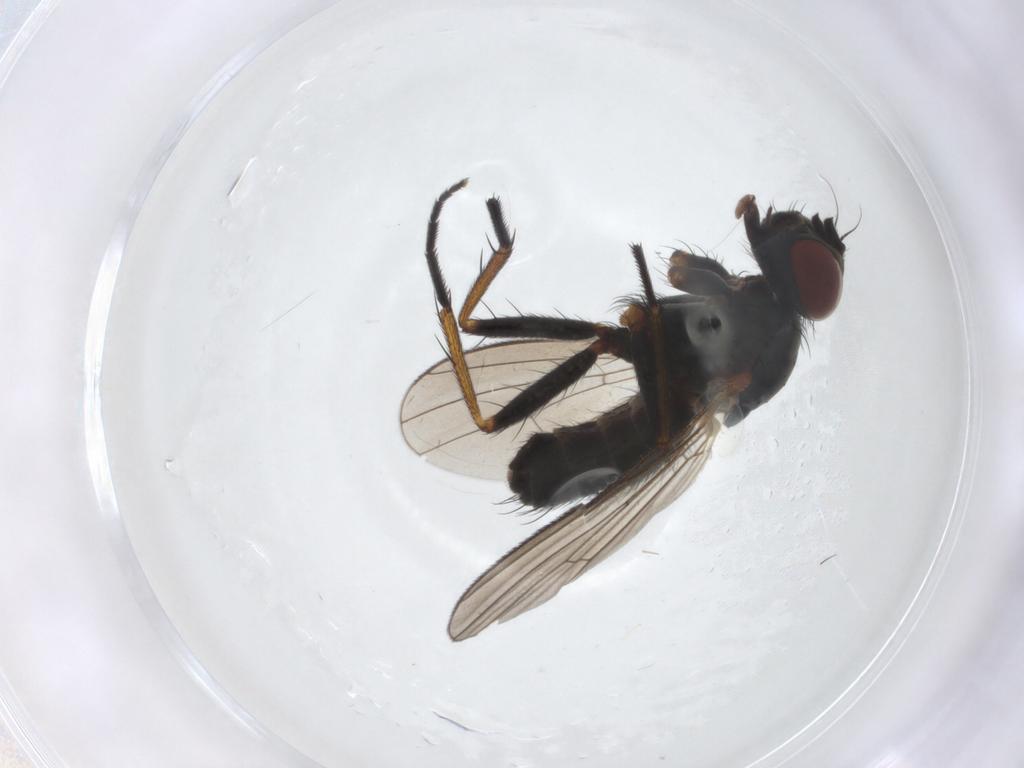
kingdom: Animalia
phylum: Arthropoda
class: Insecta
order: Diptera
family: Muscidae
